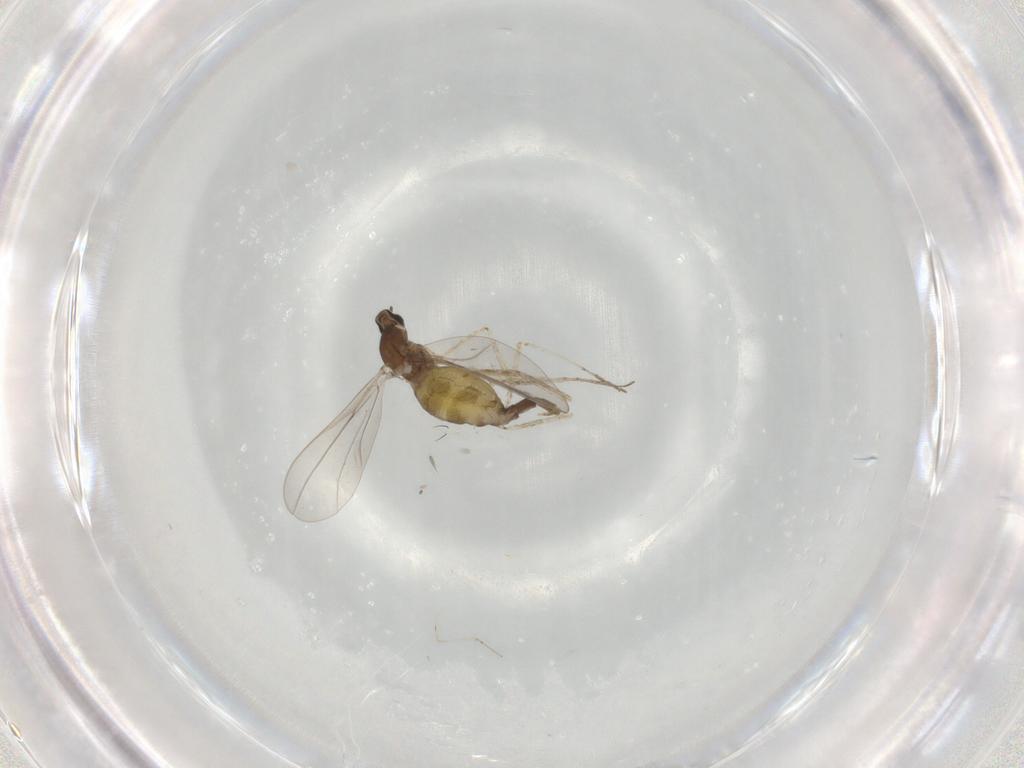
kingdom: Animalia
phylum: Arthropoda
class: Insecta
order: Diptera
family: Cecidomyiidae
